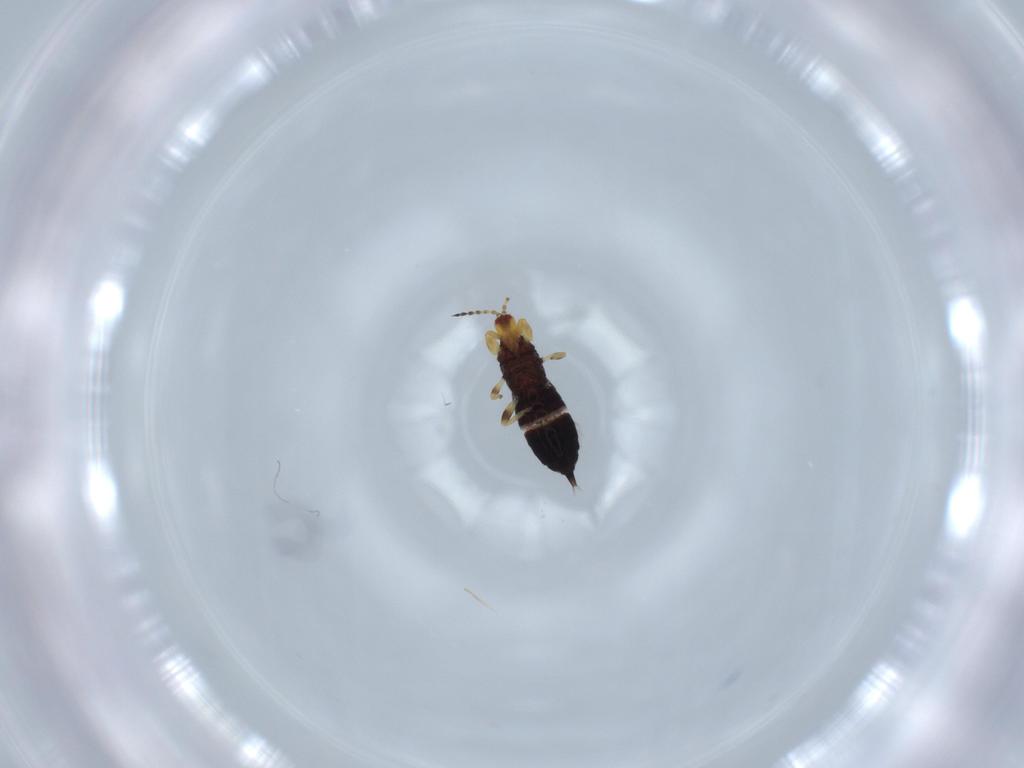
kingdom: Animalia
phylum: Arthropoda
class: Insecta
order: Thysanoptera
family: Phlaeothripidae
